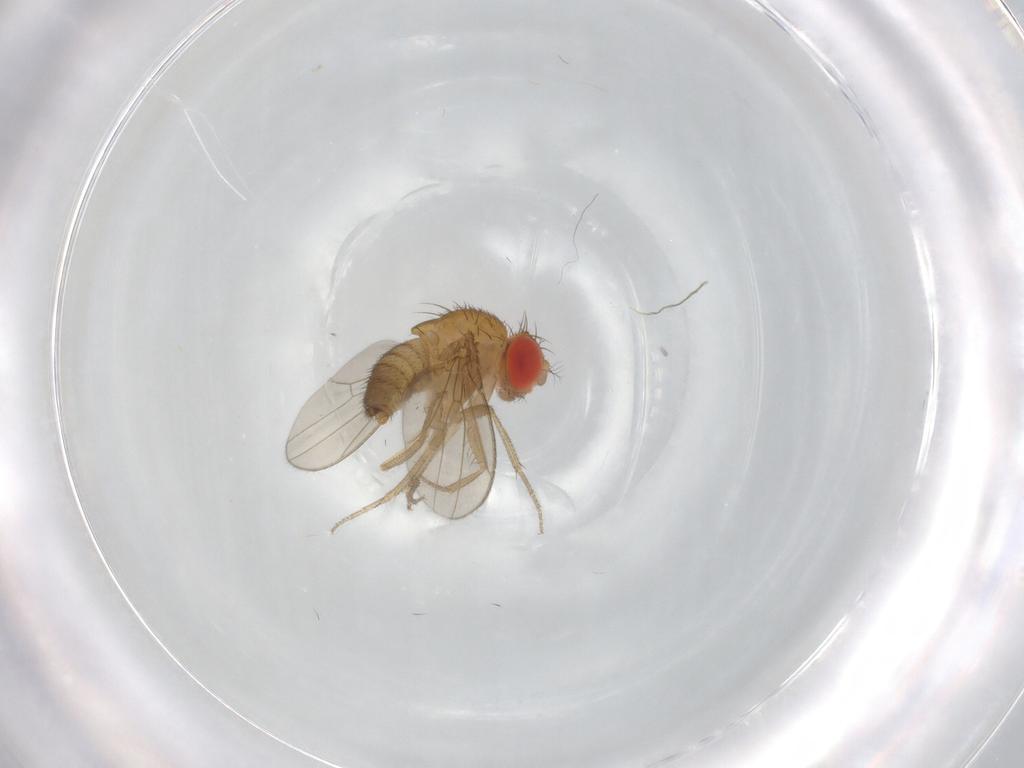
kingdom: Animalia
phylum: Arthropoda
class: Insecta
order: Diptera
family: Drosophilidae
